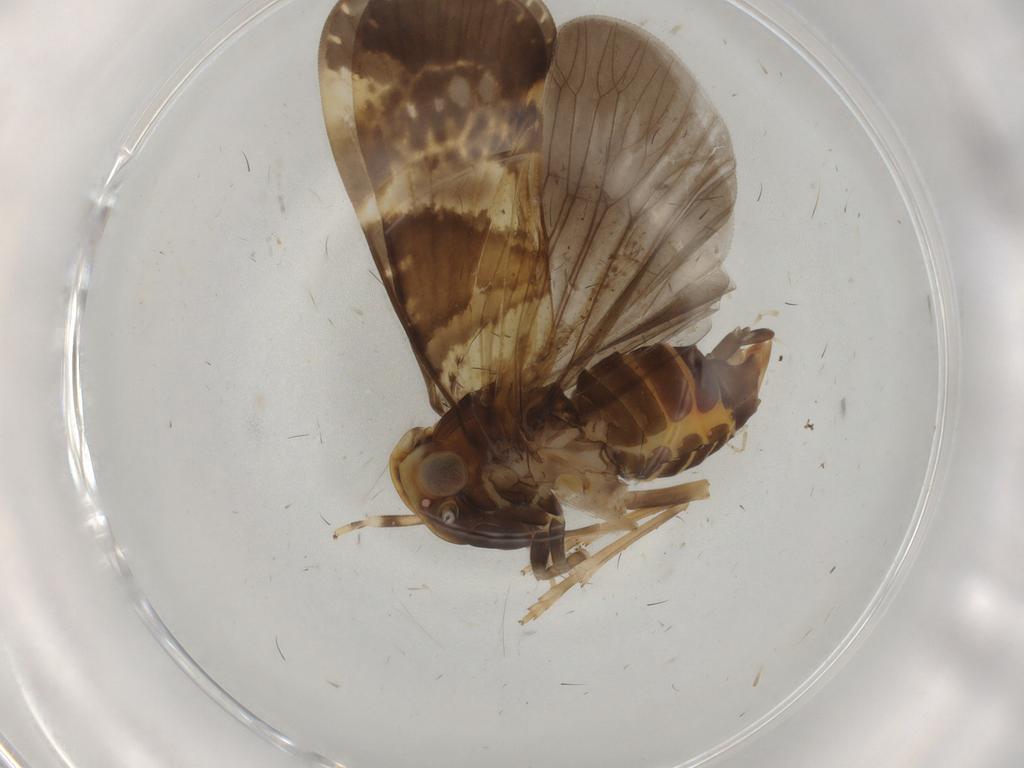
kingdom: Animalia
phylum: Arthropoda
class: Insecta
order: Hemiptera
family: Cixiidae
